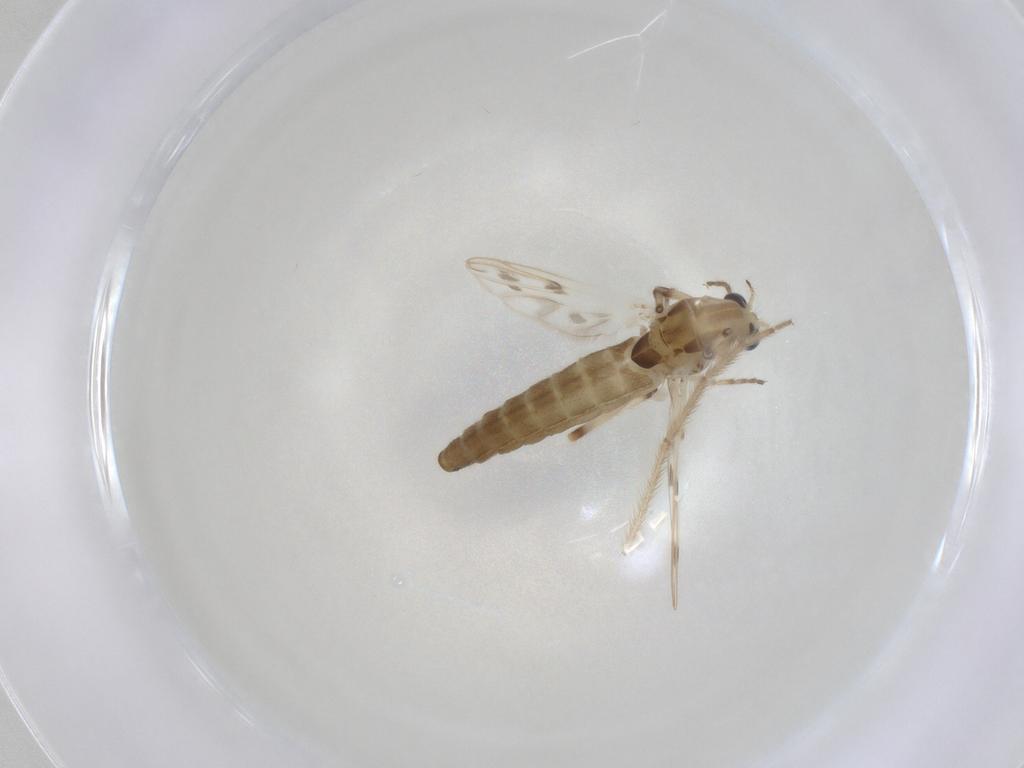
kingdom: Animalia
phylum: Arthropoda
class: Insecta
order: Diptera
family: Chironomidae
